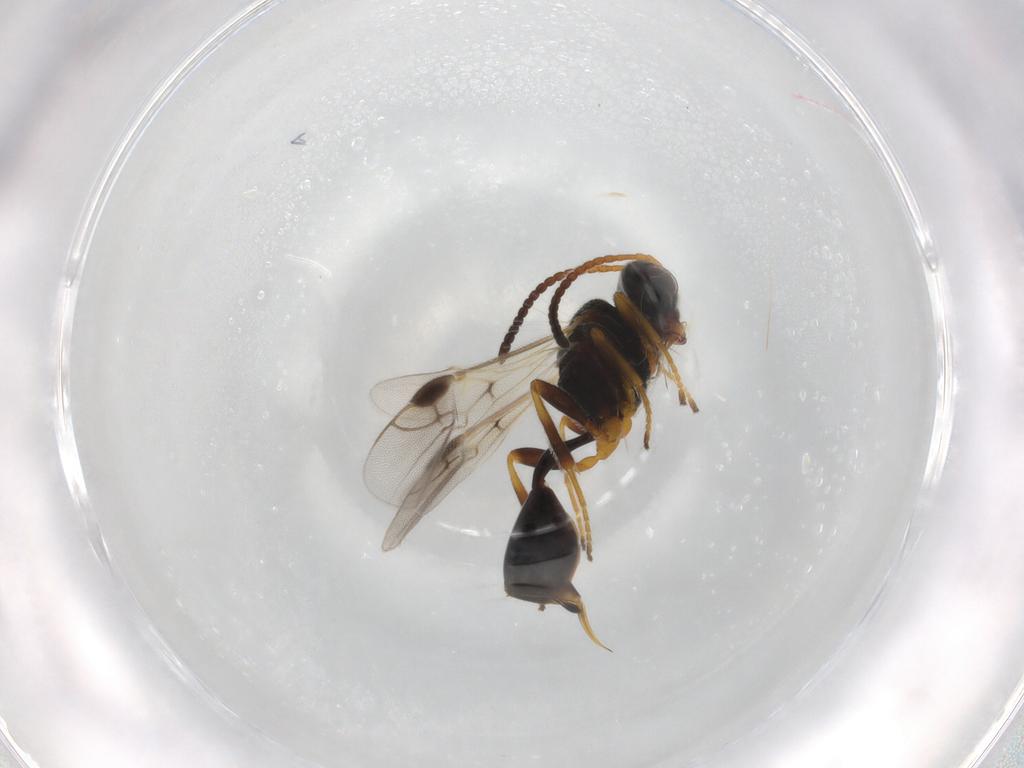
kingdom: Animalia
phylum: Arthropoda
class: Insecta
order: Hymenoptera
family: Braconidae
